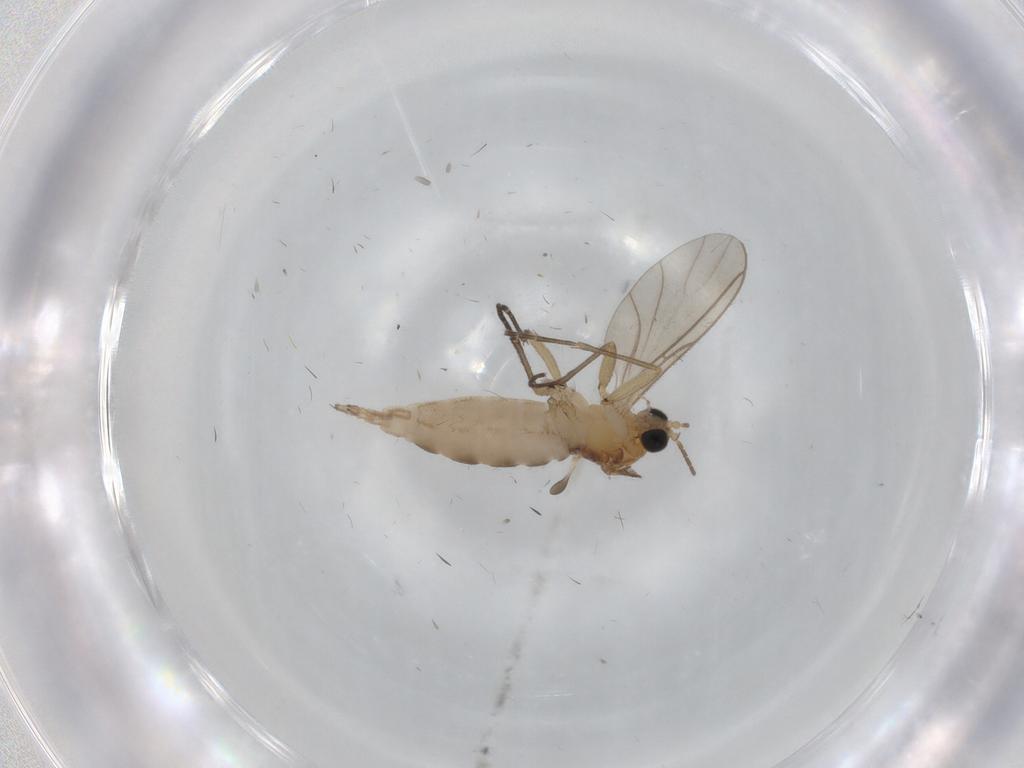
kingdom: Animalia
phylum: Arthropoda
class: Insecta
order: Diptera
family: Sciaridae
